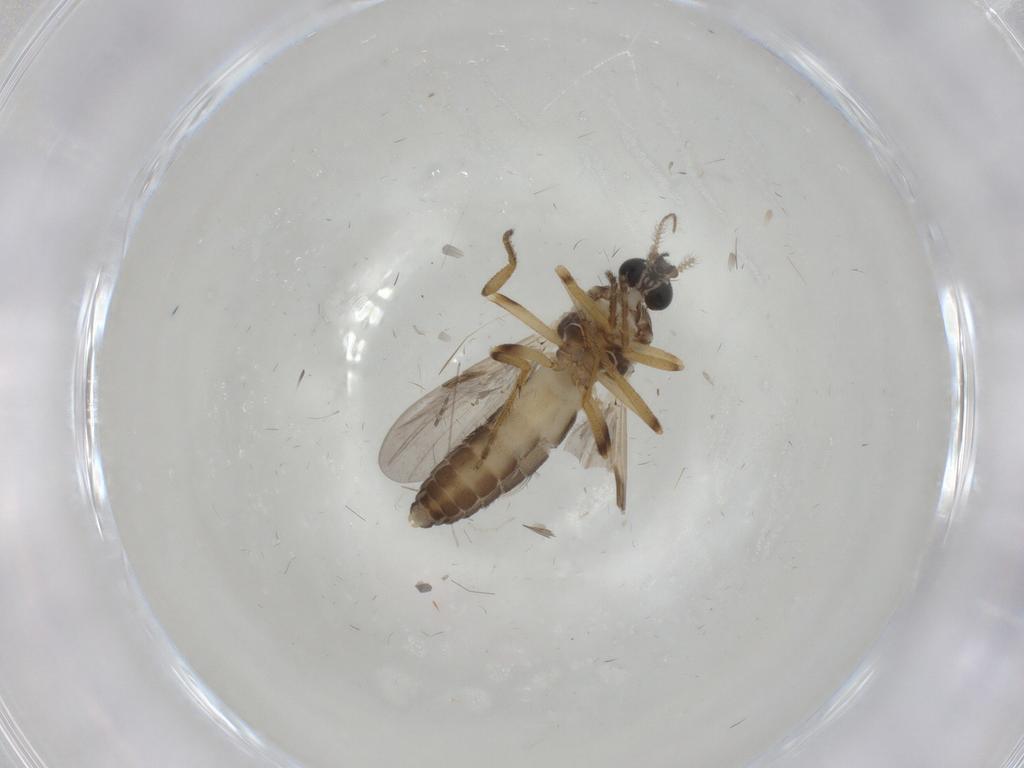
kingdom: Animalia
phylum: Arthropoda
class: Insecta
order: Diptera
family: Ceratopogonidae
